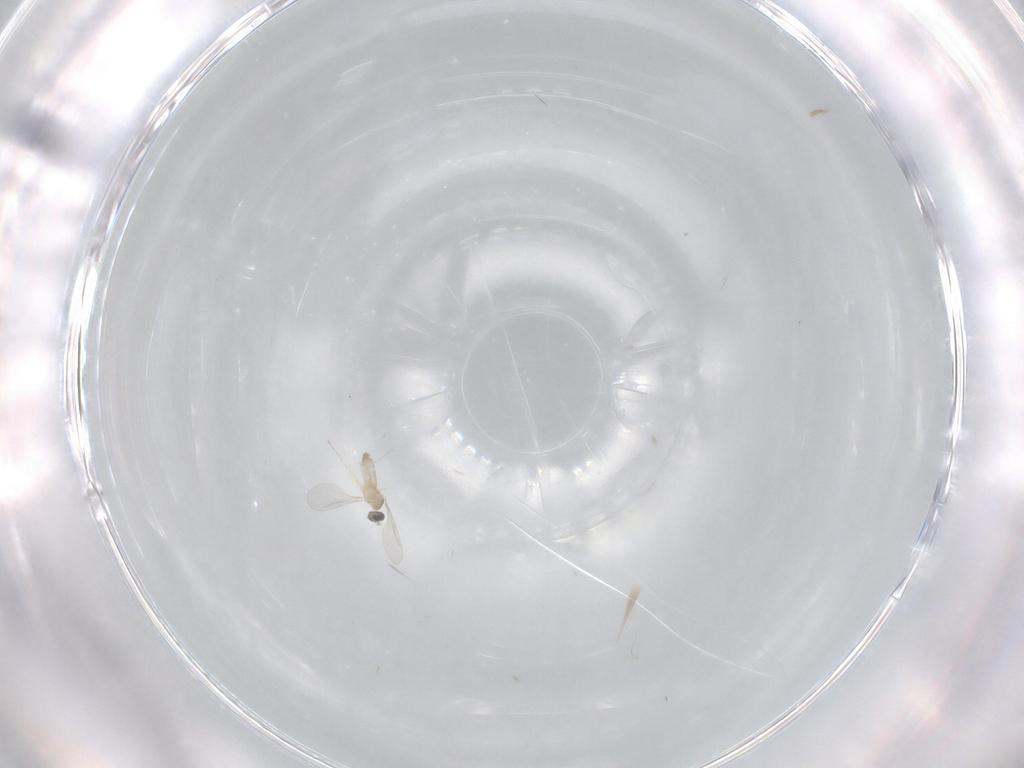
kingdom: Animalia
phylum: Arthropoda
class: Insecta
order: Diptera
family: Cecidomyiidae
